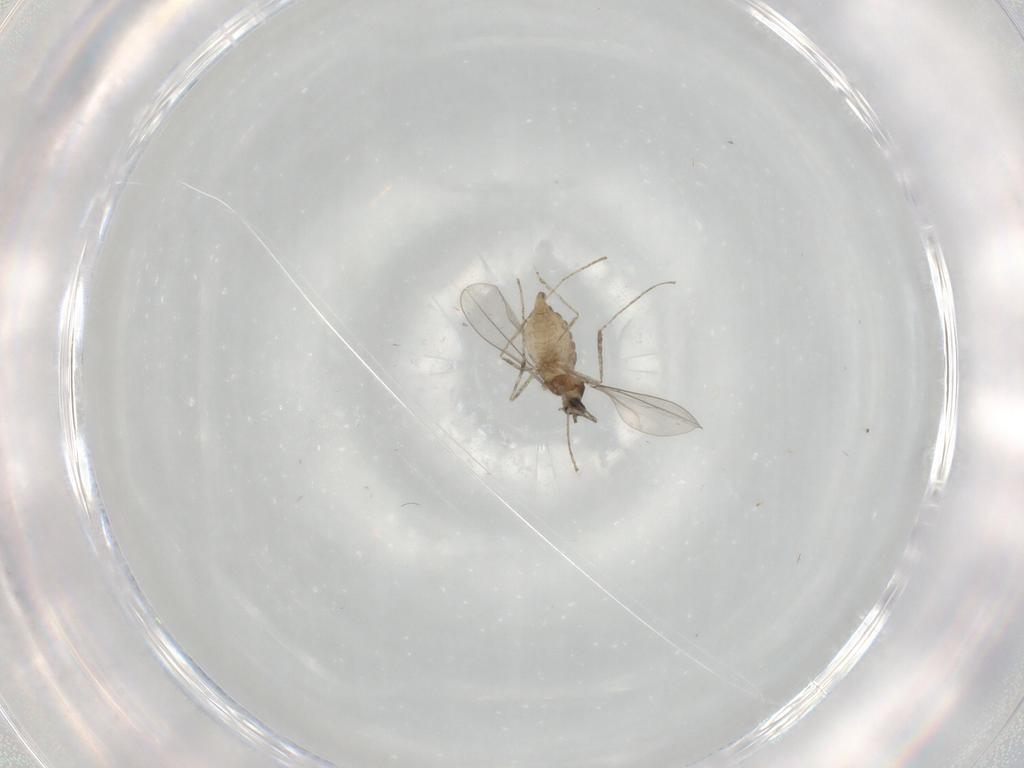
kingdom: Animalia
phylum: Arthropoda
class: Insecta
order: Diptera
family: Cecidomyiidae
